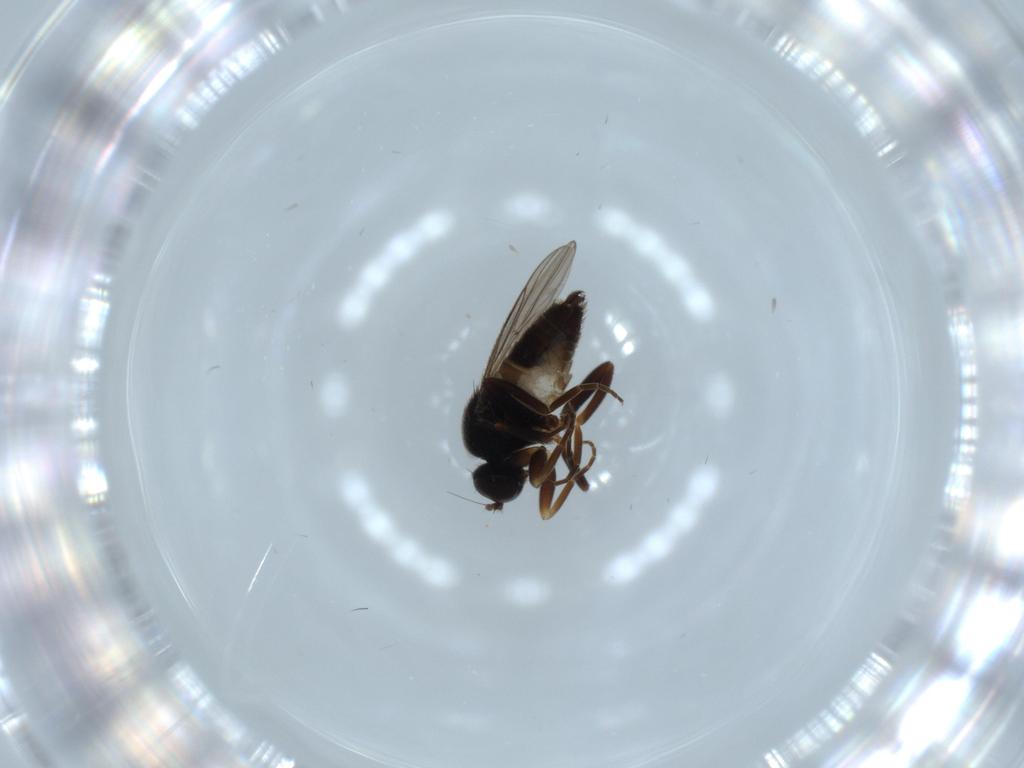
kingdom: Animalia
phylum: Arthropoda
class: Insecta
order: Diptera
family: Hybotidae
